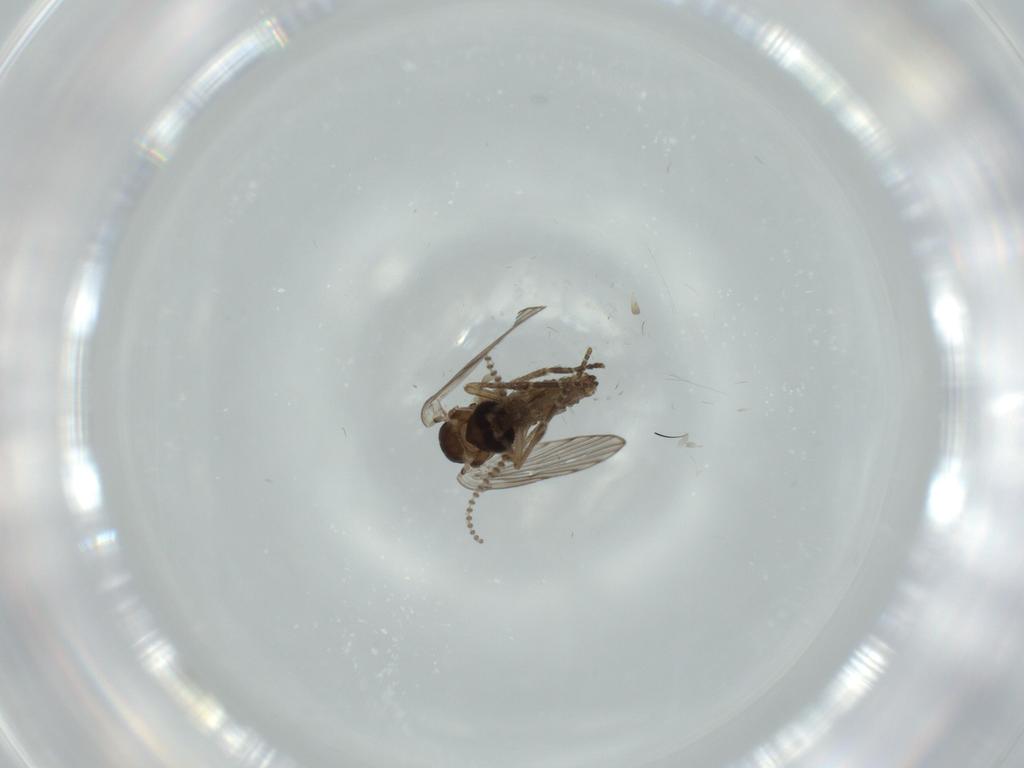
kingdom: Animalia
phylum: Arthropoda
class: Insecta
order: Diptera
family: Psychodidae
